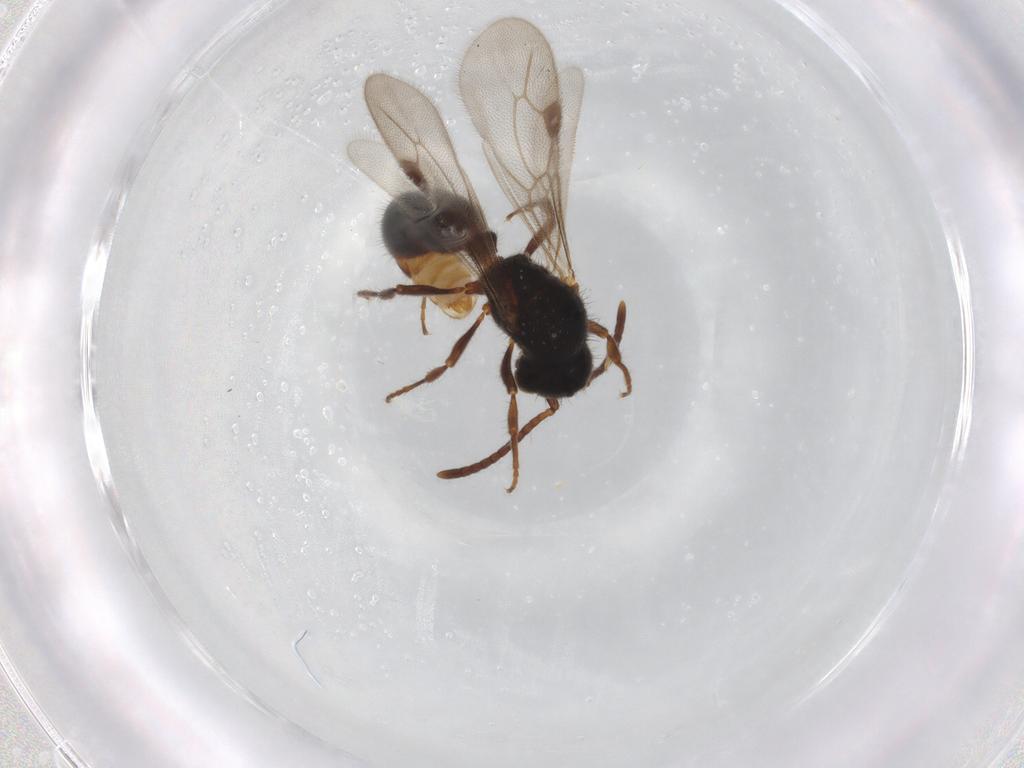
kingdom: Animalia
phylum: Arthropoda
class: Insecta
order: Hymenoptera
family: Formicidae
